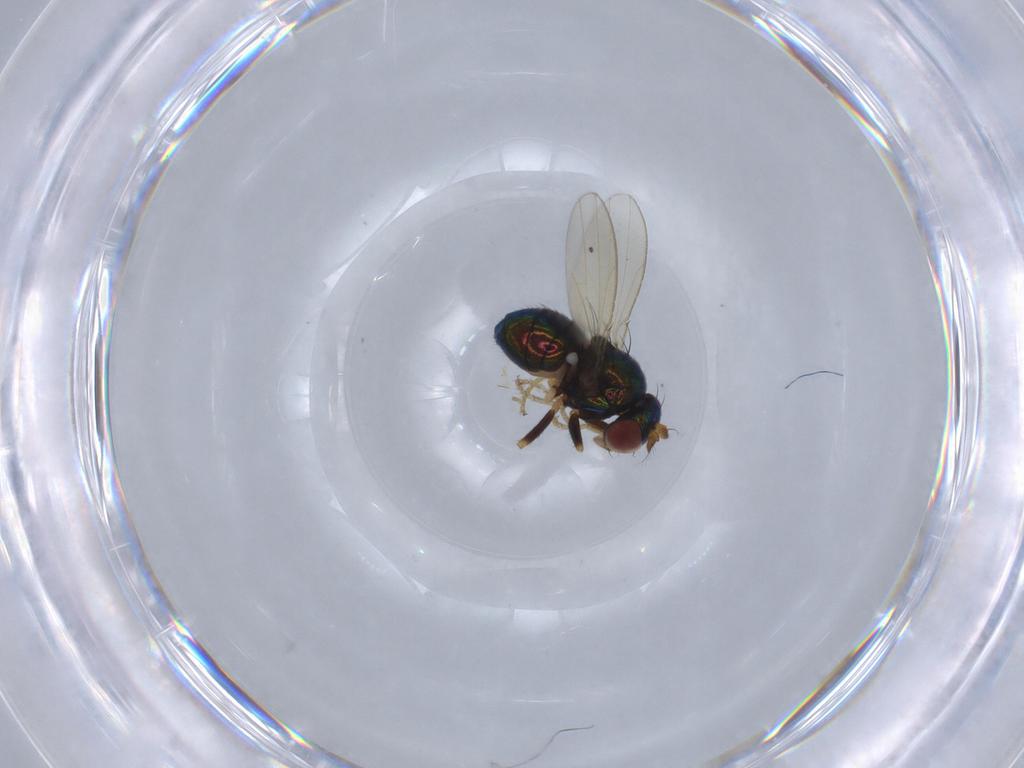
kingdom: Animalia
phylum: Arthropoda
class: Insecta
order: Diptera
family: Ephydridae
